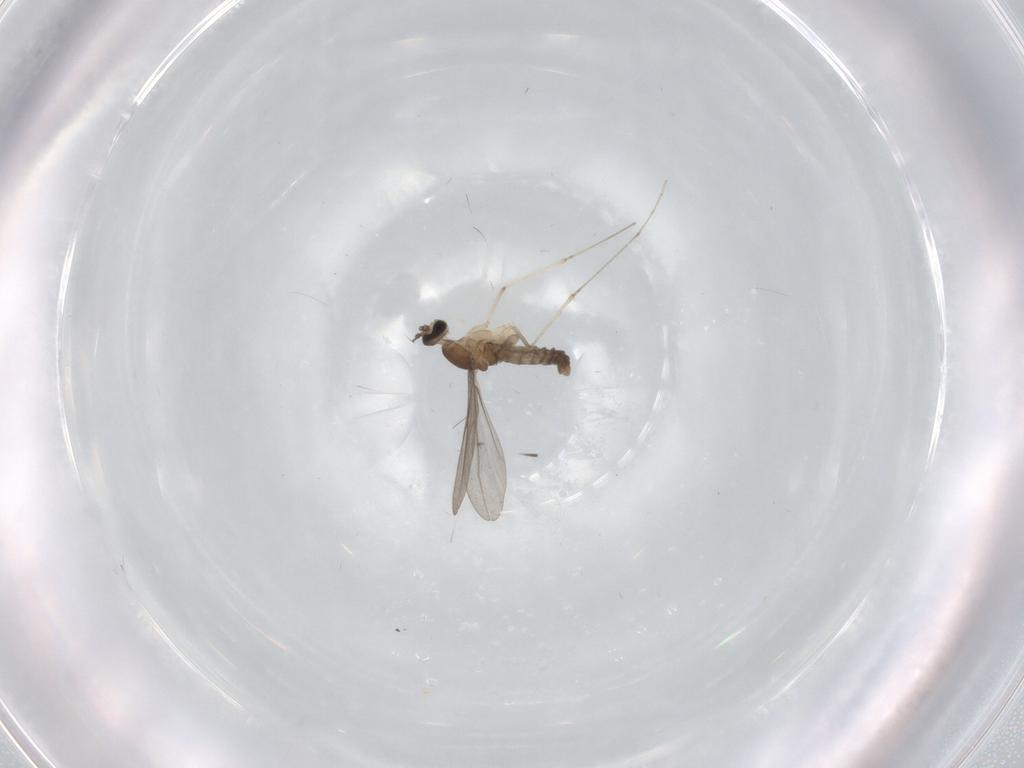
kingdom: Animalia
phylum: Arthropoda
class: Insecta
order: Diptera
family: Cecidomyiidae
